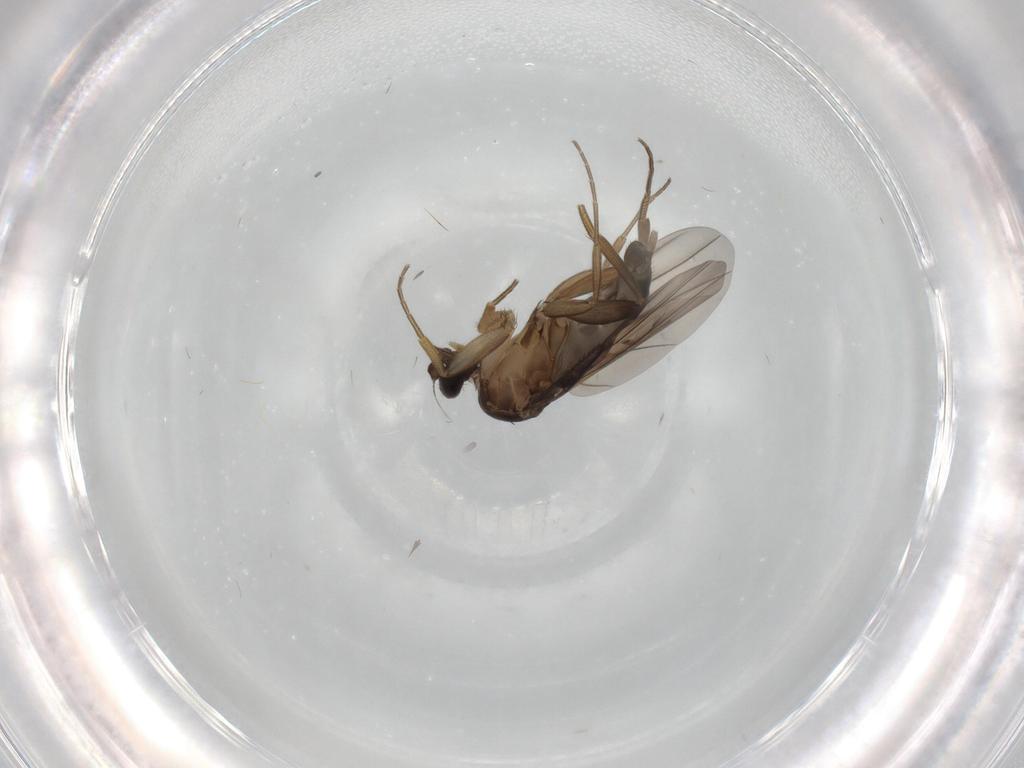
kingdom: Animalia
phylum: Arthropoda
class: Insecta
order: Diptera
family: Phoridae
